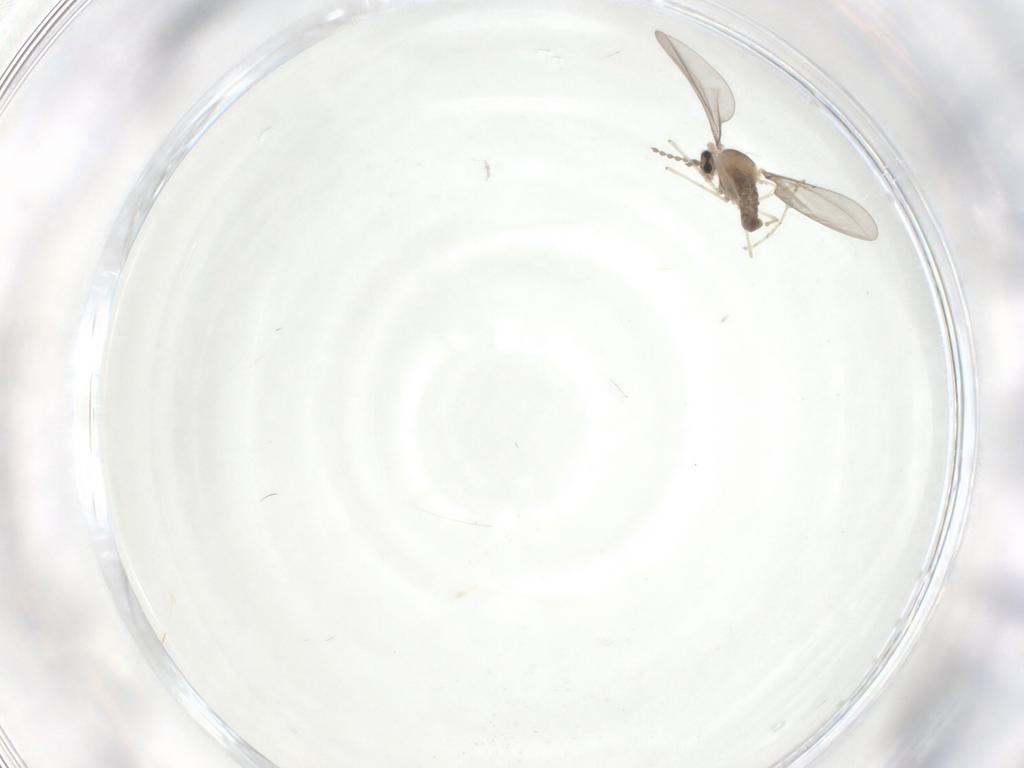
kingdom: Animalia
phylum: Arthropoda
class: Insecta
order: Diptera
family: Phoridae
